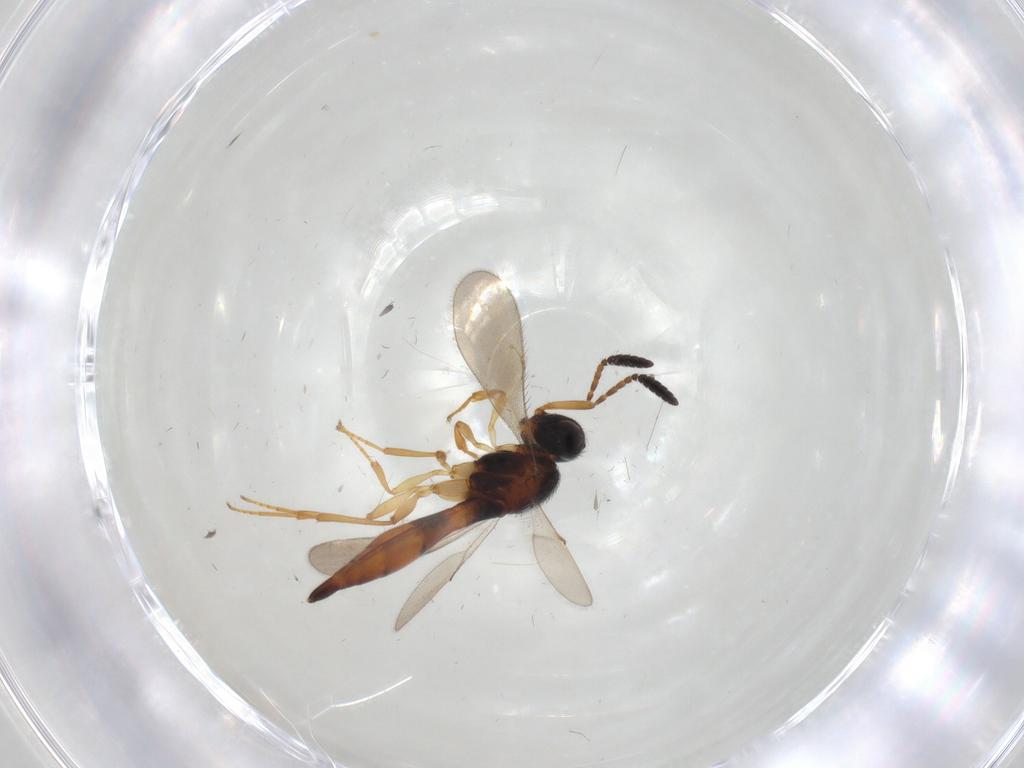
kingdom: Animalia
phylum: Arthropoda
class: Insecta
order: Hymenoptera
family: Scelionidae
